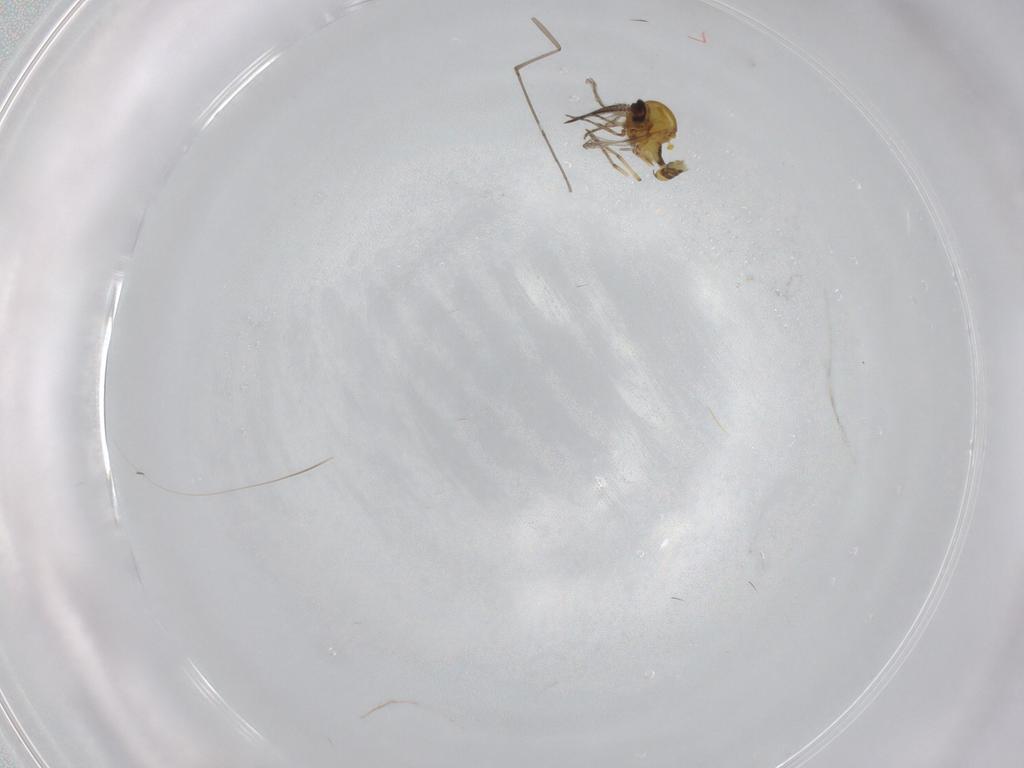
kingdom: Animalia
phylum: Arthropoda
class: Insecta
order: Diptera
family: Ceratopogonidae
